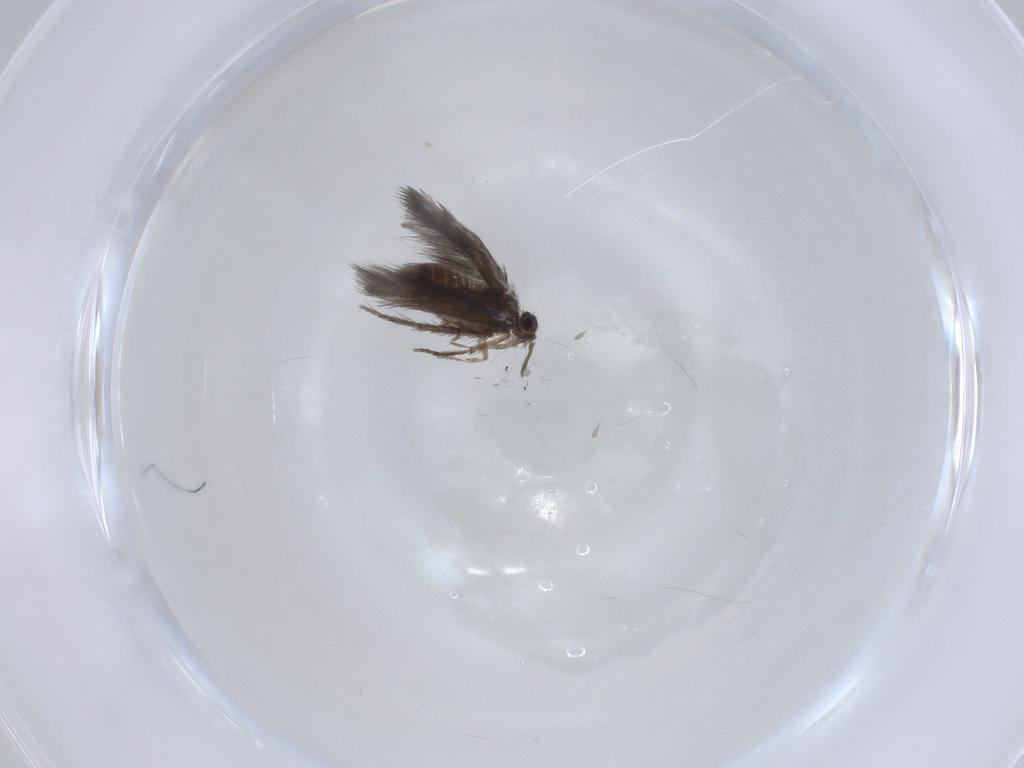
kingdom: Animalia
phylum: Arthropoda
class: Insecta
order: Trichoptera
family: Hydroptilidae
